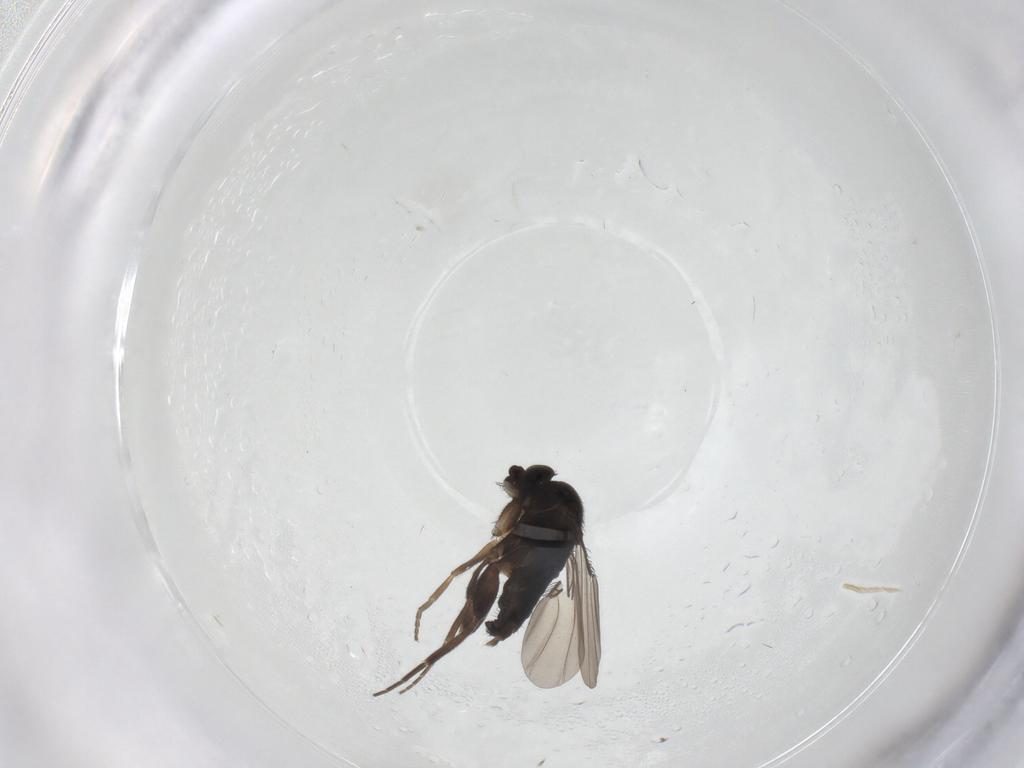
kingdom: Animalia
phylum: Arthropoda
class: Insecta
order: Diptera
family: Phoridae
